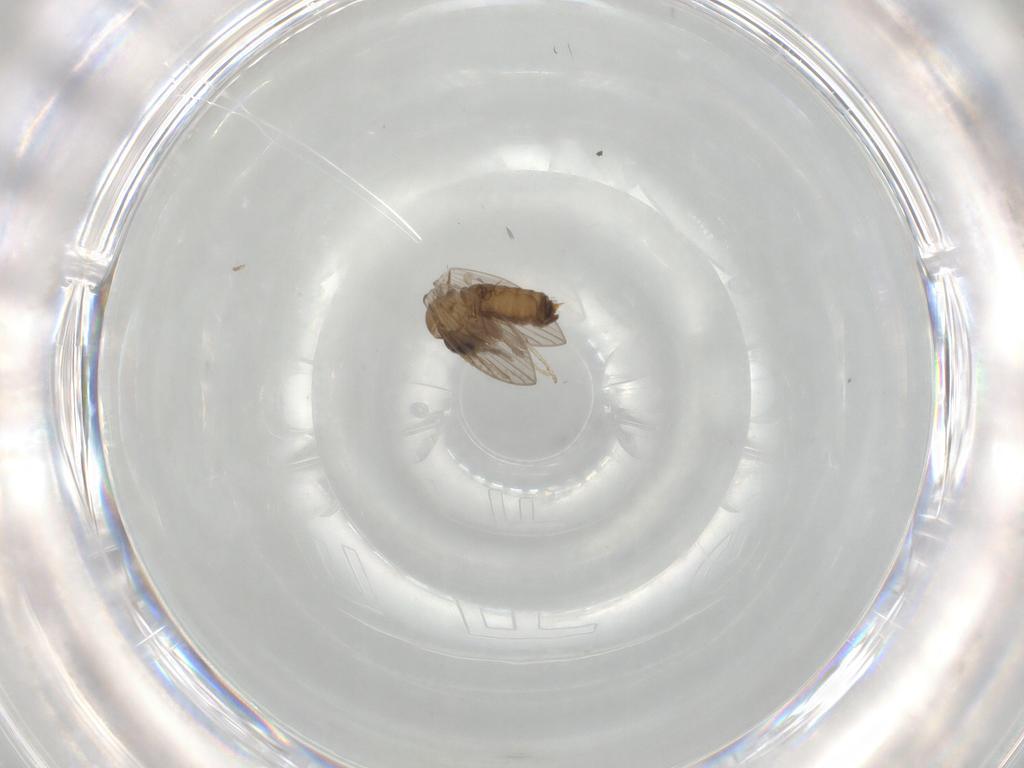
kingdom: Animalia
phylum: Arthropoda
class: Insecta
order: Diptera
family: Psychodidae
